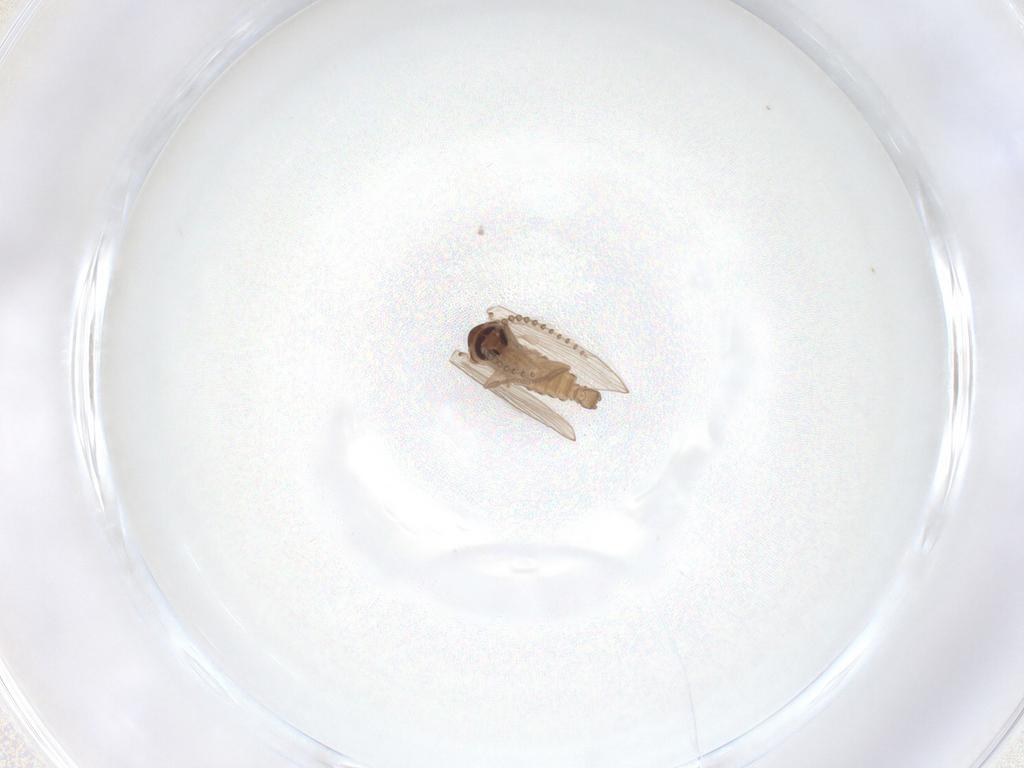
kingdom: Animalia
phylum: Arthropoda
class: Insecta
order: Diptera
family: Psychodidae
